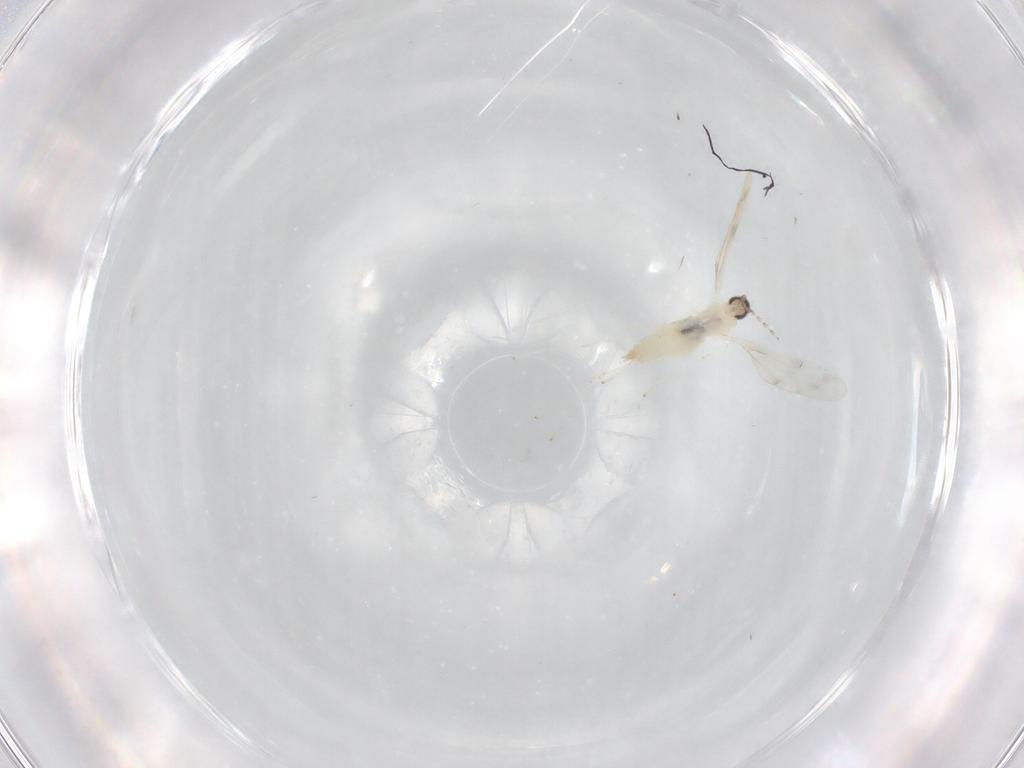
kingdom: Animalia
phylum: Arthropoda
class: Insecta
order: Diptera
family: Cecidomyiidae
